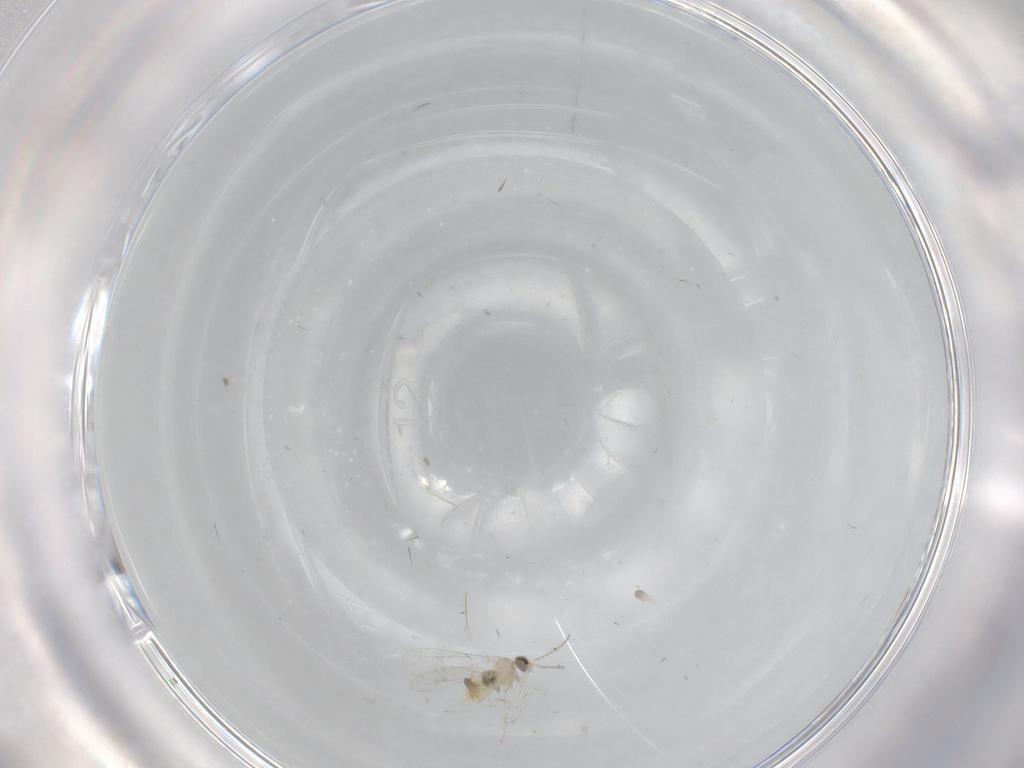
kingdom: Animalia
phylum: Arthropoda
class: Insecta
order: Diptera
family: Cecidomyiidae
